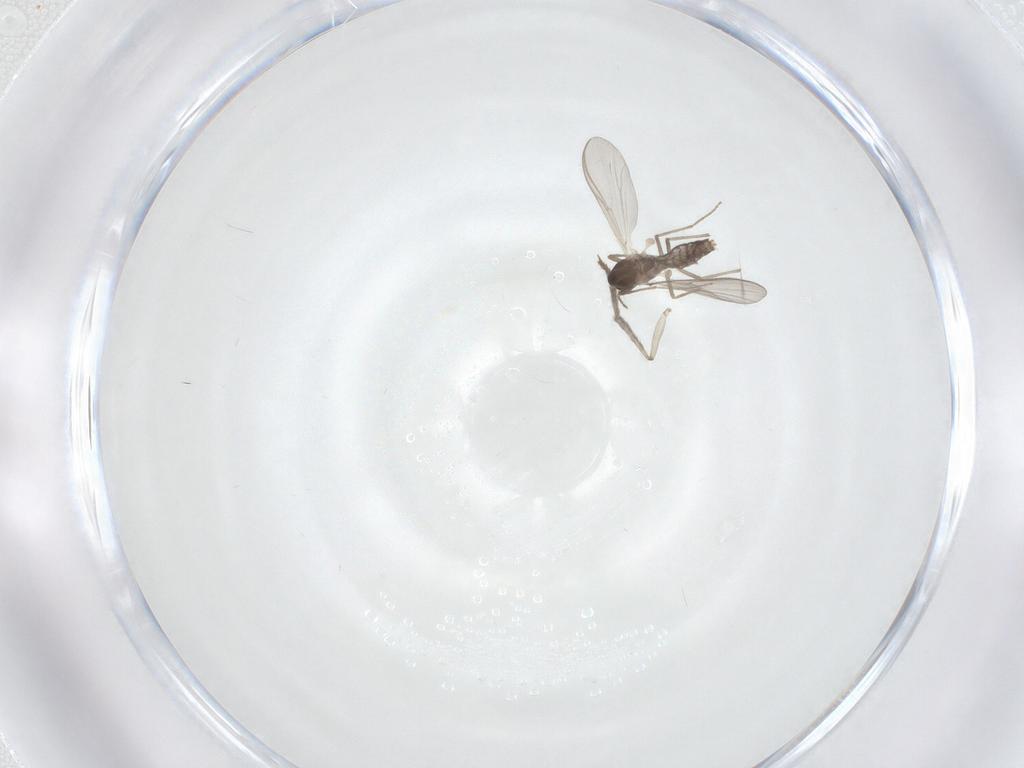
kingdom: Animalia
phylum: Arthropoda
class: Insecta
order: Diptera
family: Psychodidae
